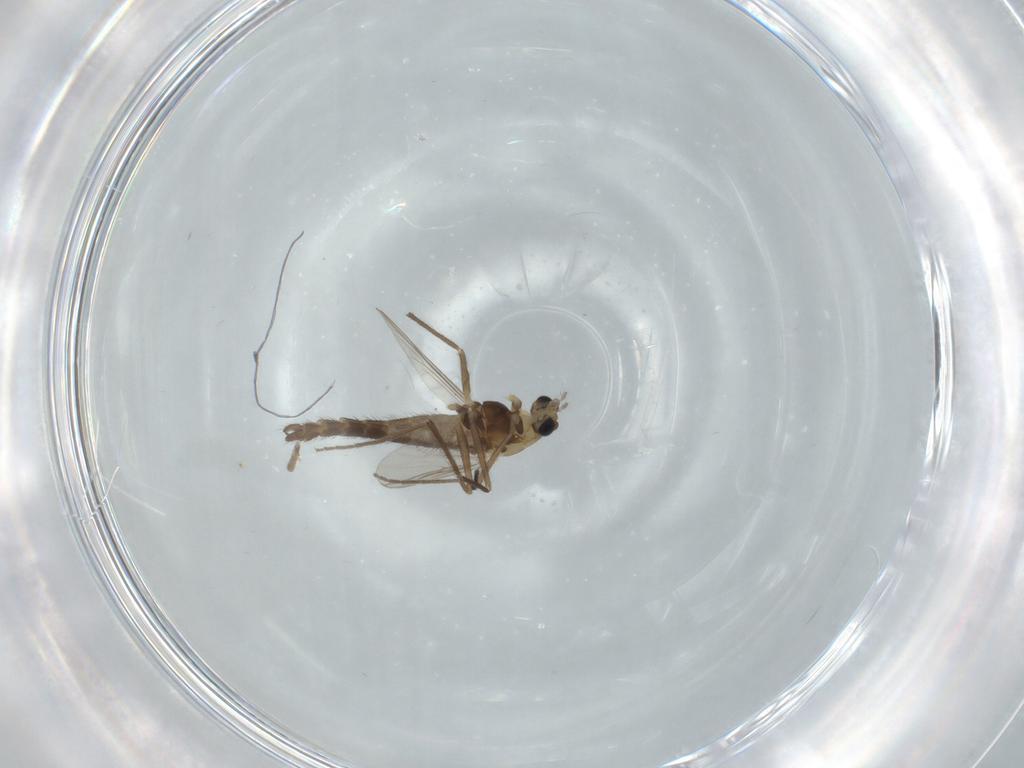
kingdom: Animalia
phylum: Arthropoda
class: Insecta
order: Diptera
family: Chironomidae
